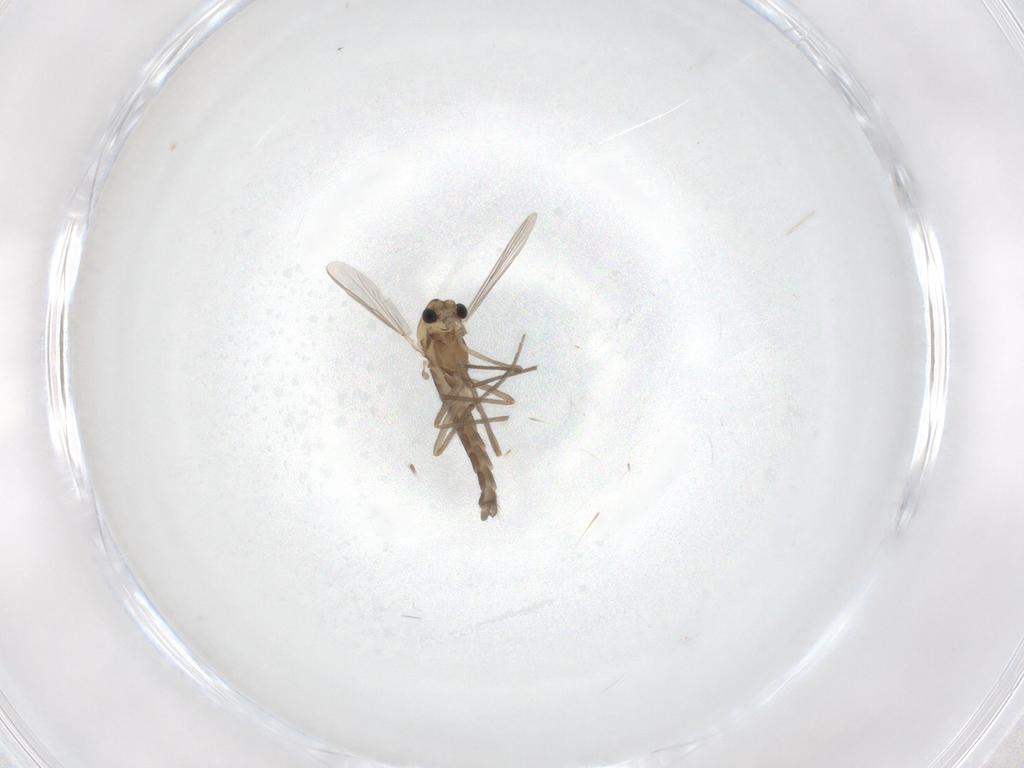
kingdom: Animalia
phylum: Arthropoda
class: Insecta
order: Diptera
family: Chironomidae
